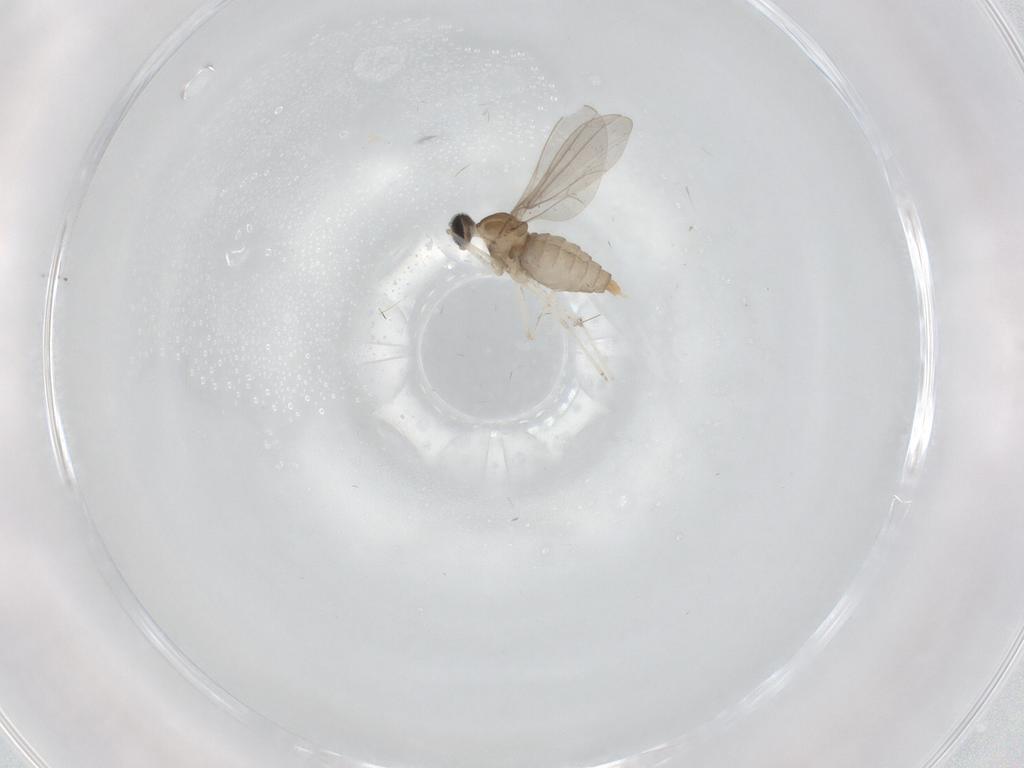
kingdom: Animalia
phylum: Arthropoda
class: Insecta
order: Diptera
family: Cecidomyiidae
